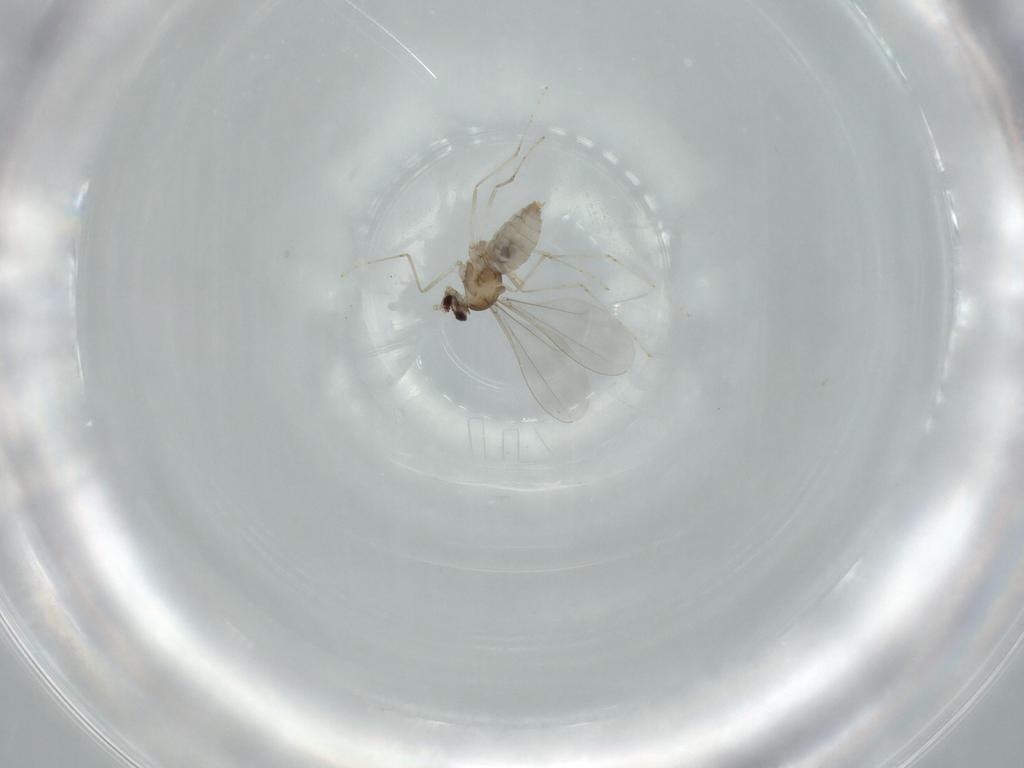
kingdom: Animalia
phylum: Arthropoda
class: Insecta
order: Diptera
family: Cecidomyiidae
